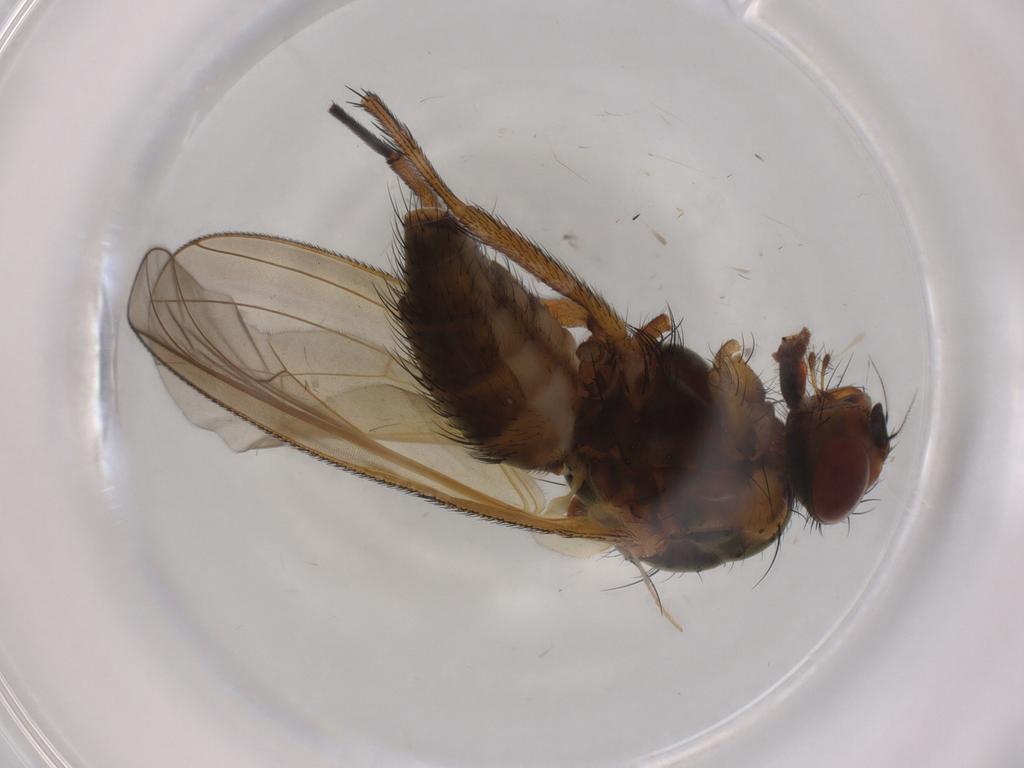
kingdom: Animalia
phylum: Arthropoda
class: Insecta
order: Diptera
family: Anthomyiidae
